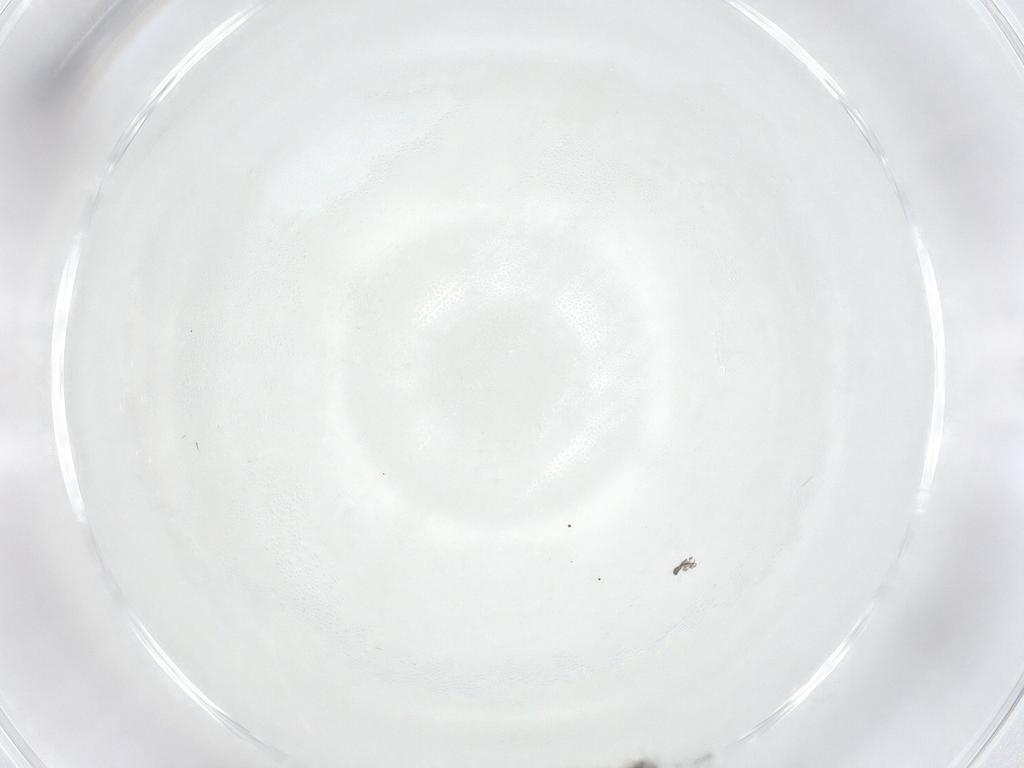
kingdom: Animalia
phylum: Arthropoda
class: Insecta
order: Diptera
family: Sciaridae
